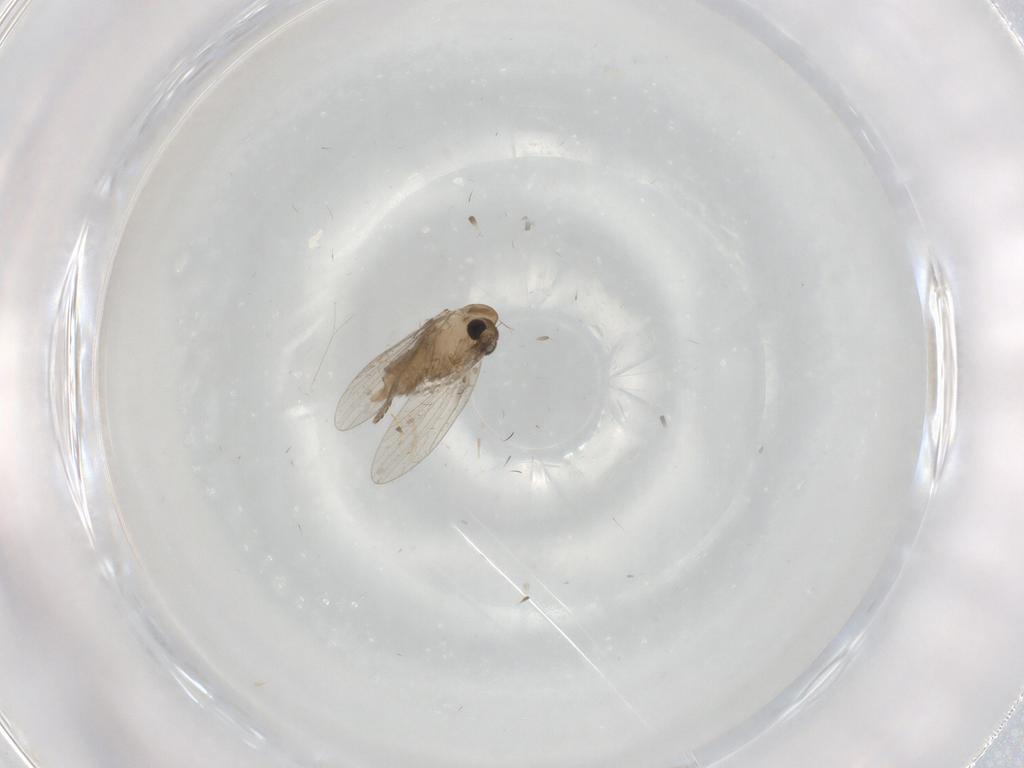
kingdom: Animalia
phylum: Arthropoda
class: Insecta
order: Diptera
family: Psychodidae
